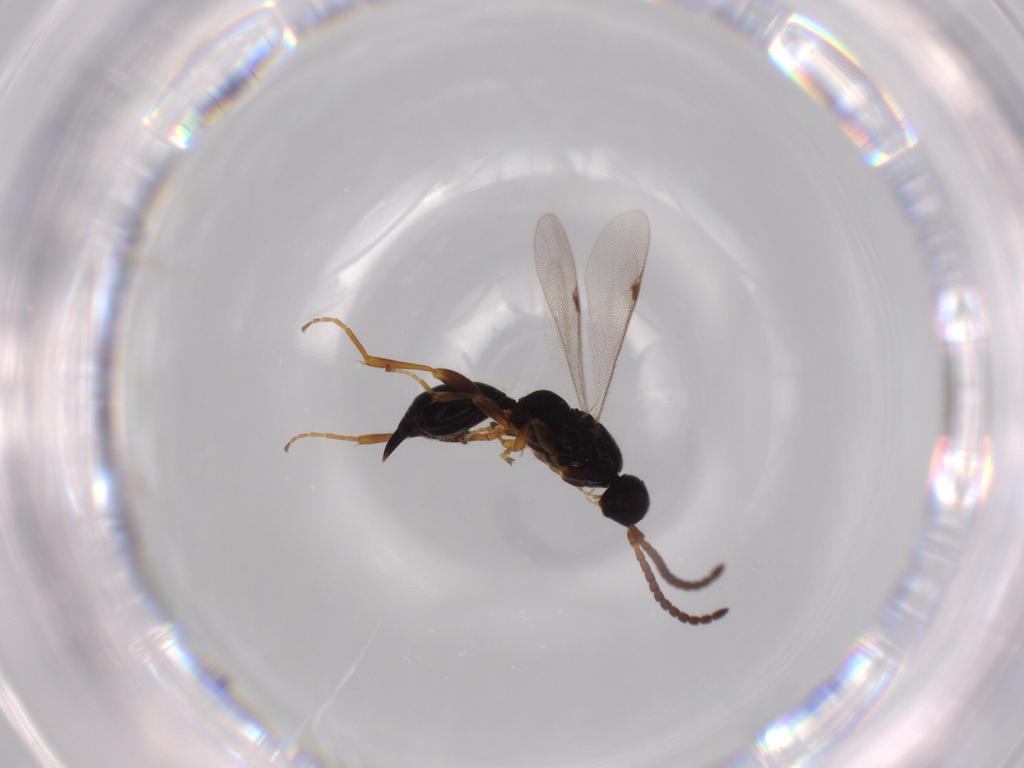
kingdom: Animalia
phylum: Arthropoda
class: Insecta
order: Hymenoptera
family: Proctotrupidae
